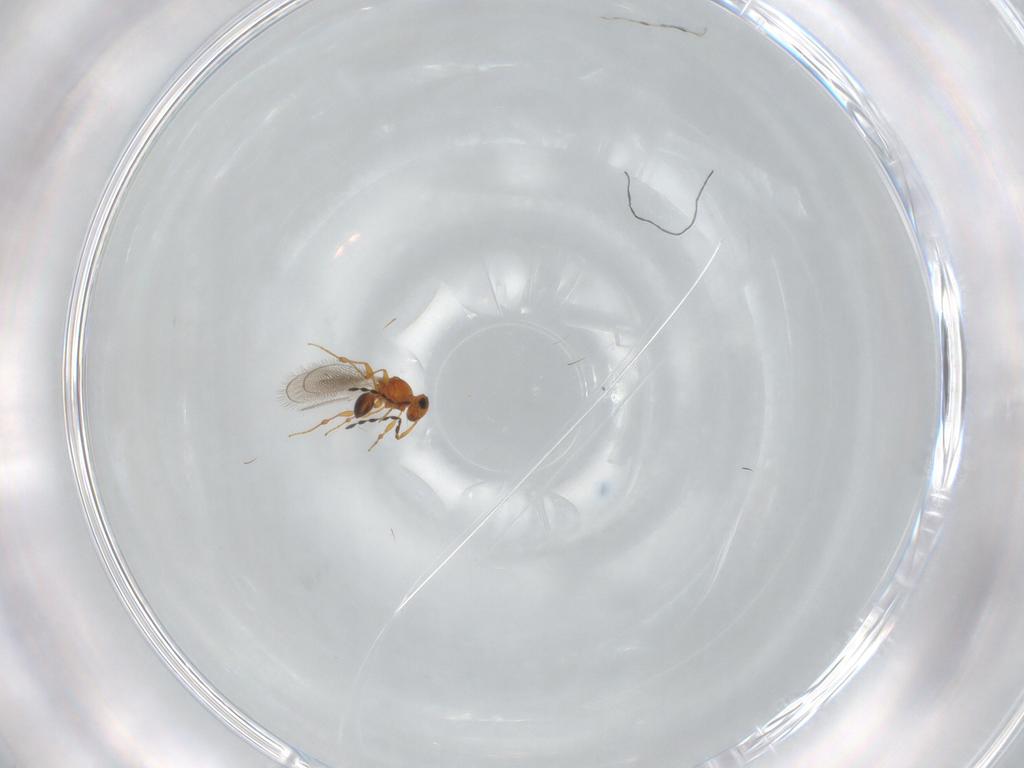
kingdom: Animalia
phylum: Arthropoda
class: Insecta
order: Hymenoptera
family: Platygastridae
